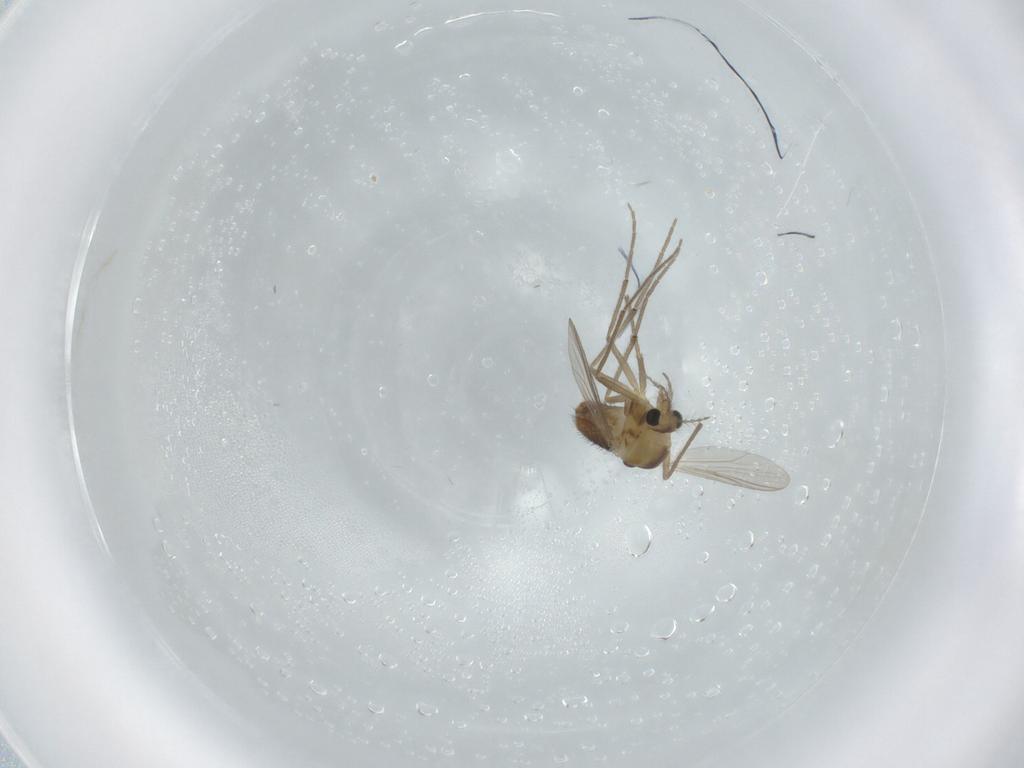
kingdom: Animalia
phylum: Arthropoda
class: Insecta
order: Diptera
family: Chironomidae
